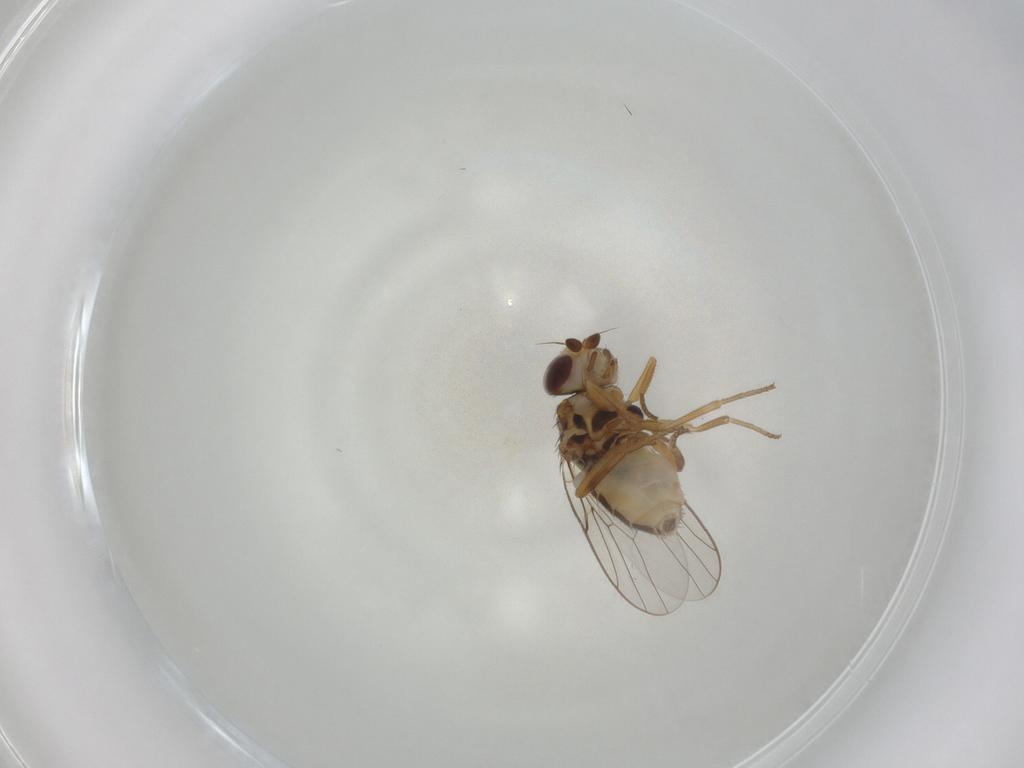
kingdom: Animalia
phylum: Arthropoda
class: Insecta
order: Diptera
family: Chloropidae
